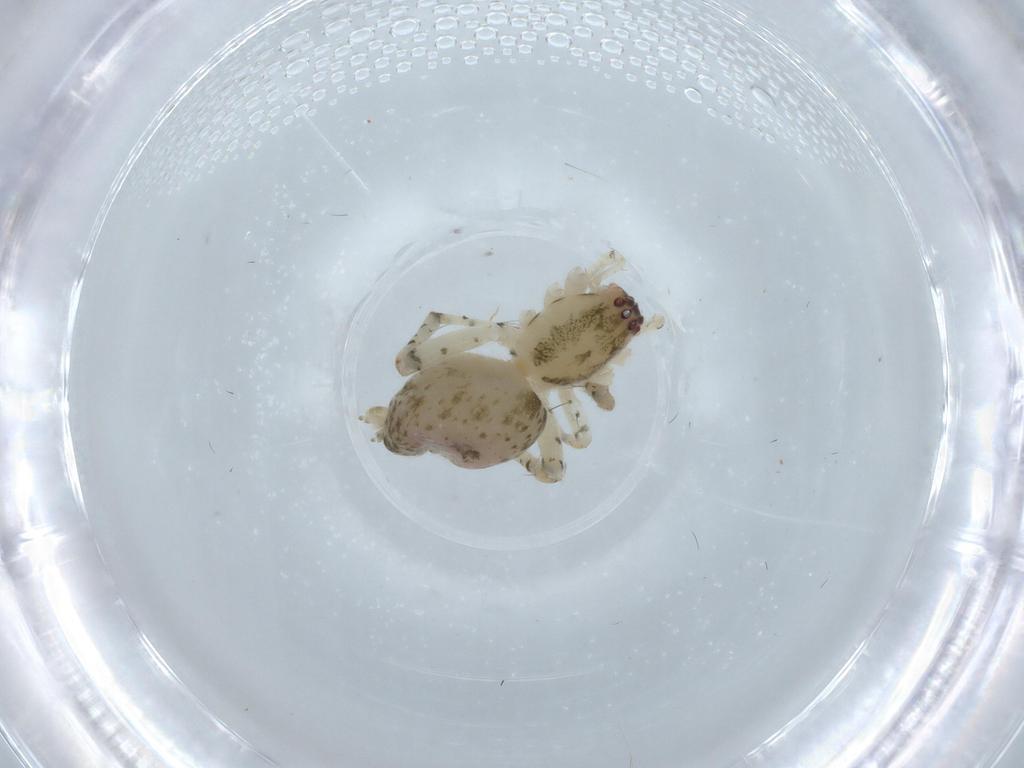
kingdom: Animalia
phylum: Arthropoda
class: Arachnida
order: Araneae
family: Anyphaenidae
